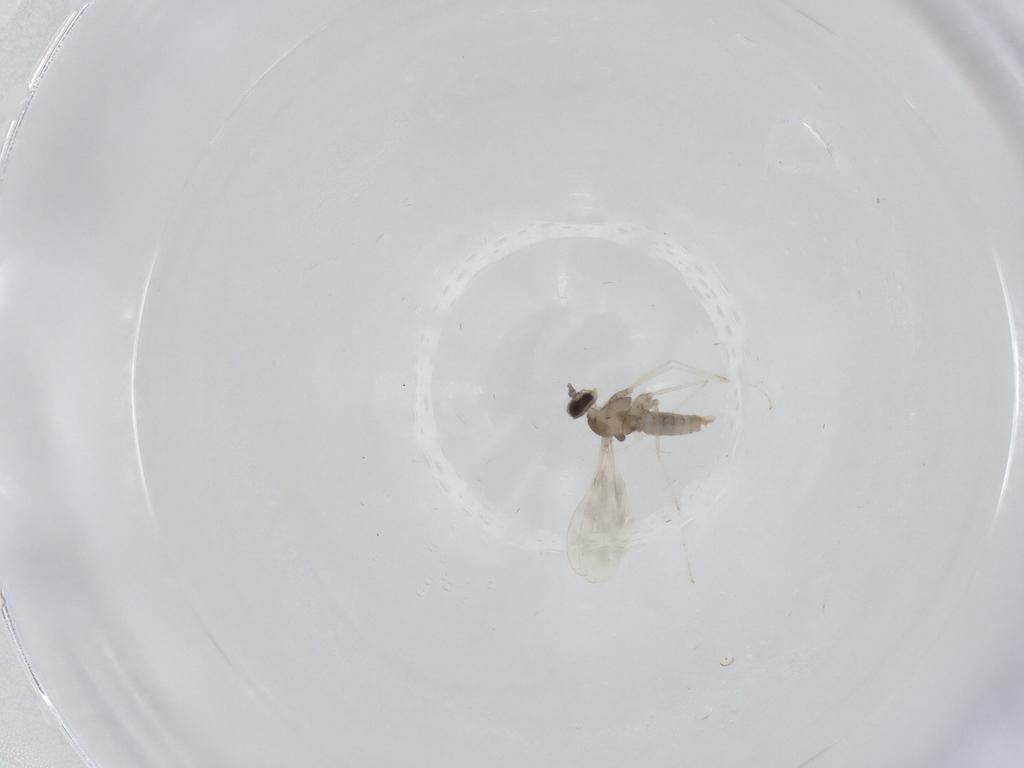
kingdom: Animalia
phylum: Arthropoda
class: Insecta
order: Diptera
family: Cecidomyiidae
